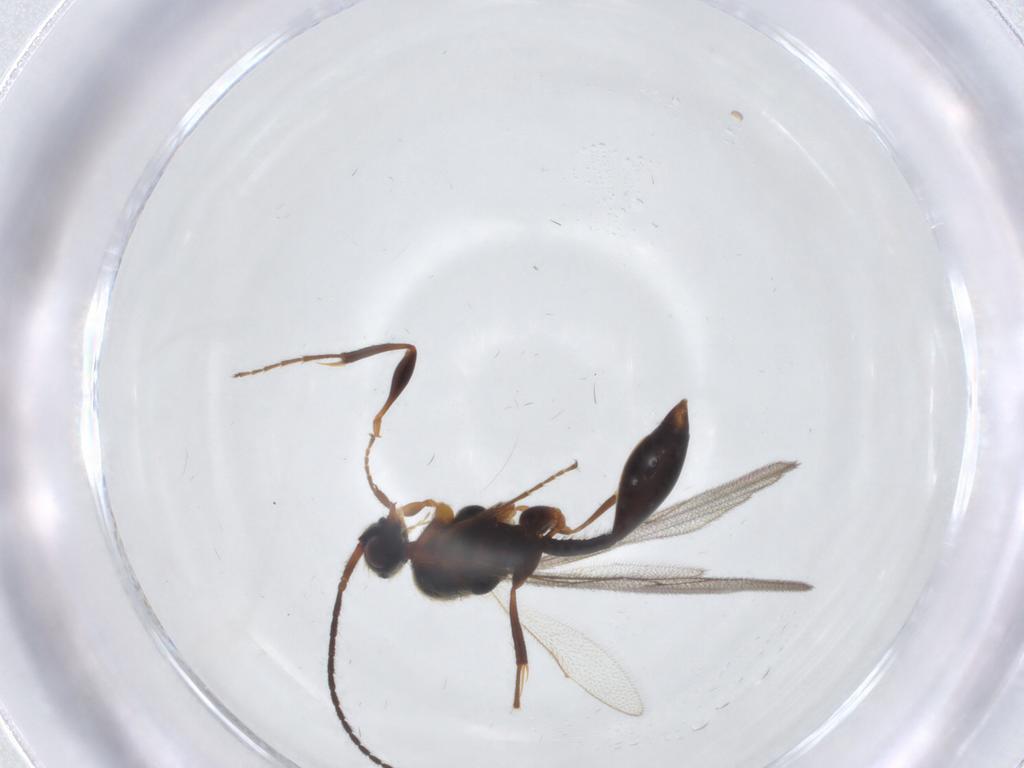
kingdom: Animalia
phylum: Arthropoda
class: Insecta
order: Hymenoptera
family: Diapriidae
